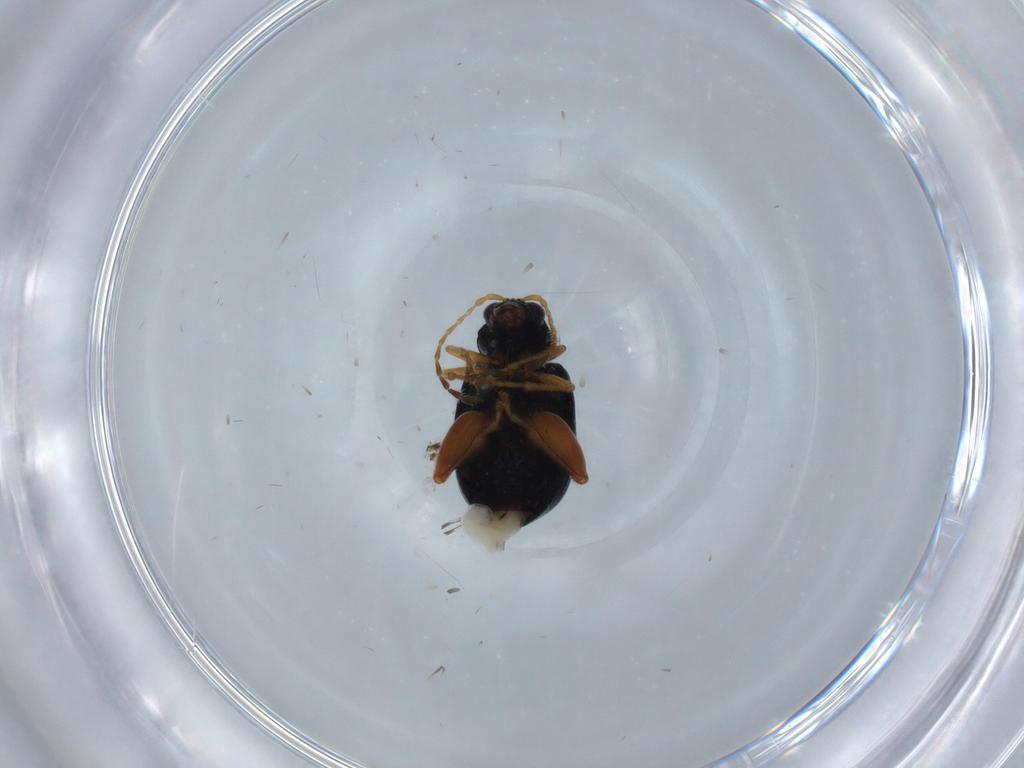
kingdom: Animalia
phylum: Arthropoda
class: Insecta
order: Coleoptera
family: Chrysomelidae
